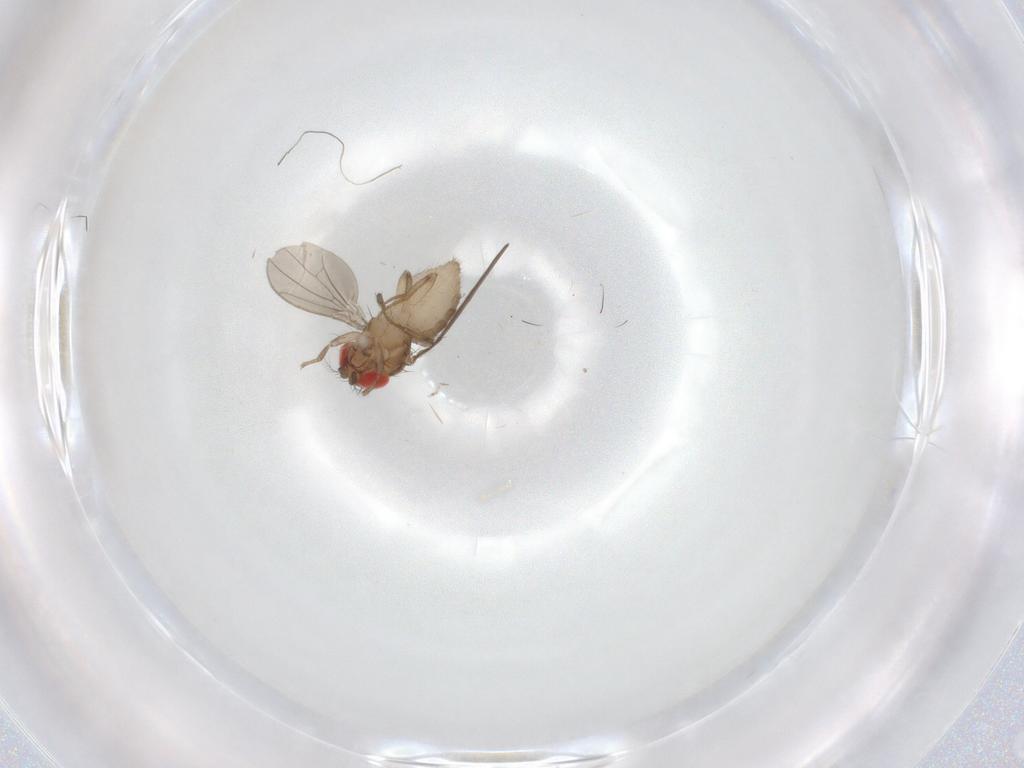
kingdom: Animalia
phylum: Arthropoda
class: Insecta
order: Diptera
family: Drosophilidae
